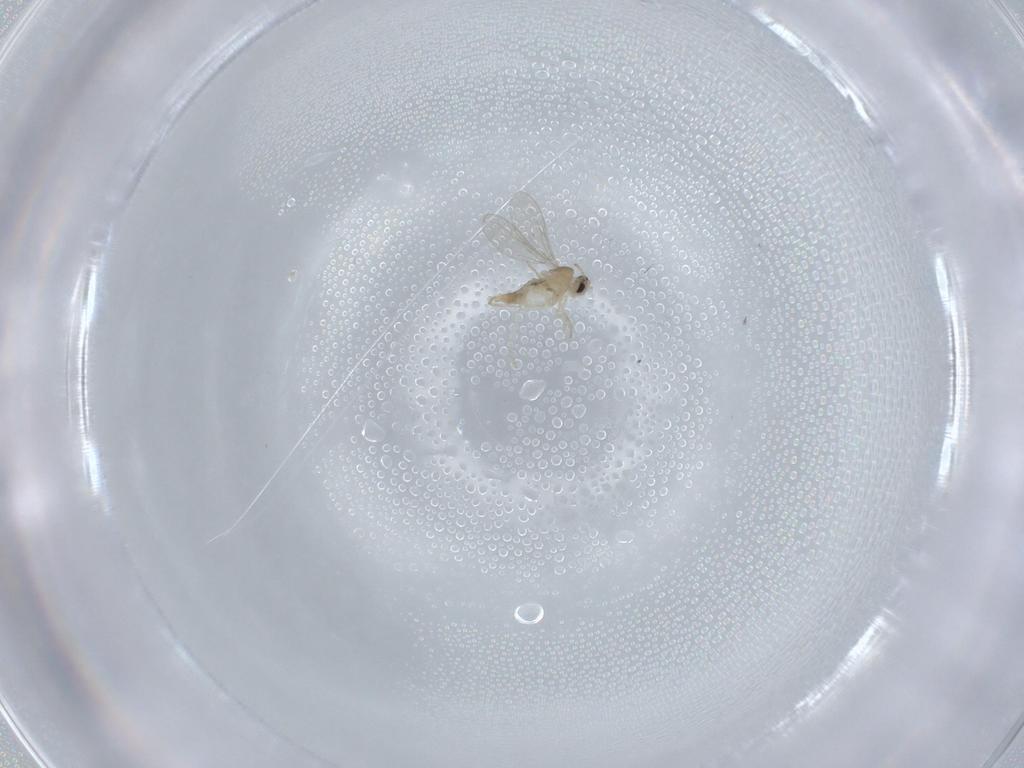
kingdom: Animalia
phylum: Arthropoda
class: Insecta
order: Diptera
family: Cecidomyiidae
